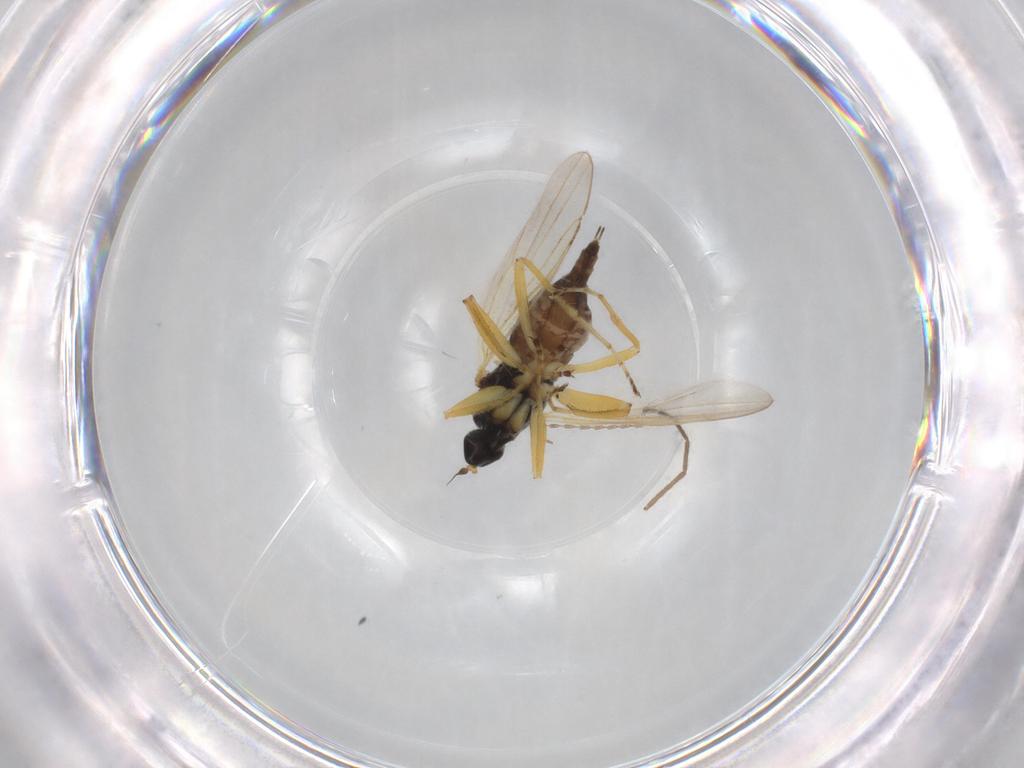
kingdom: Animalia
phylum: Arthropoda
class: Insecta
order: Diptera
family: Hybotidae
